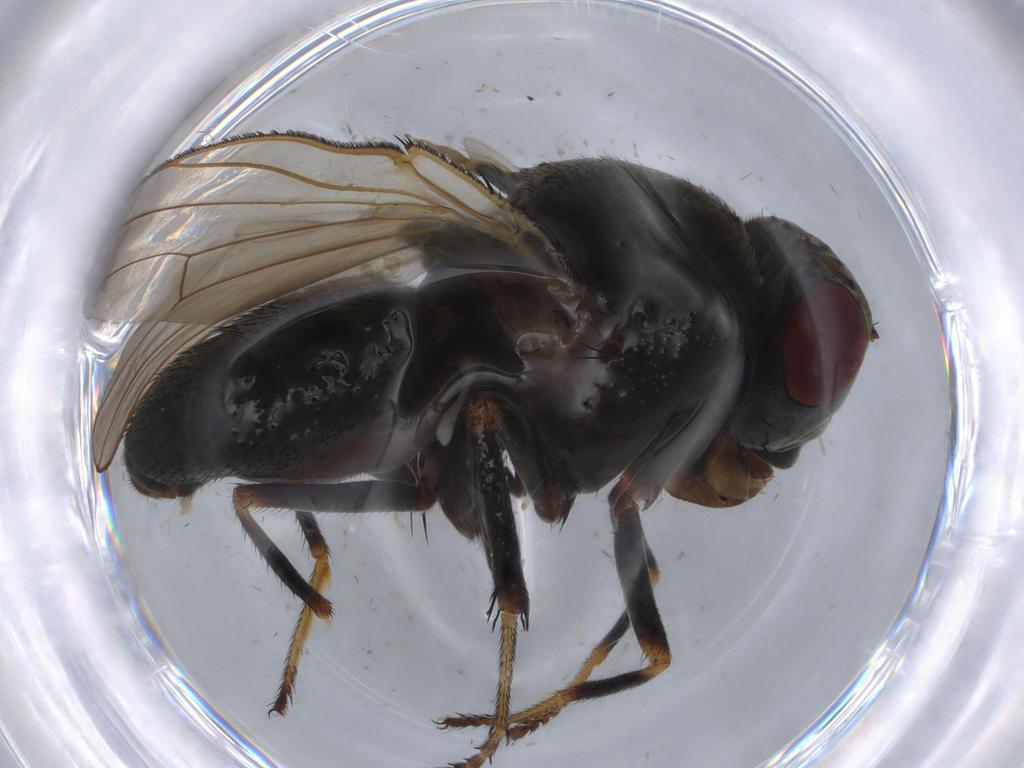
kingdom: Animalia
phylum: Arthropoda
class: Insecta
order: Diptera
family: Ephydridae
